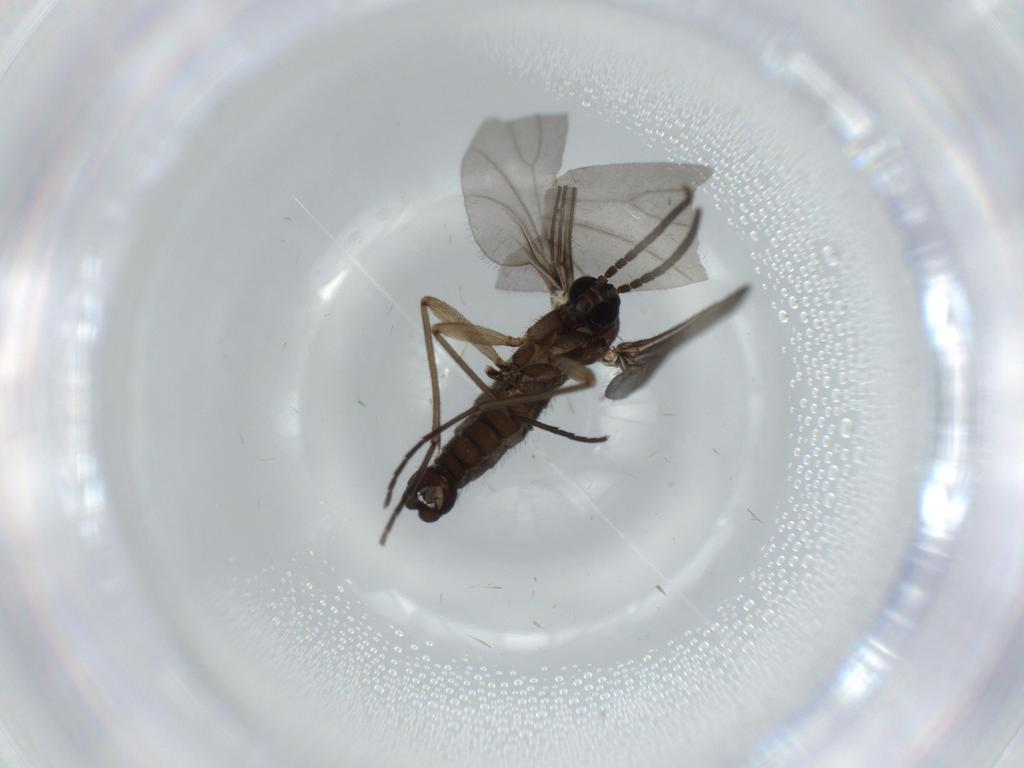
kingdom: Animalia
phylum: Arthropoda
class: Insecta
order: Diptera
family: Sciaridae
